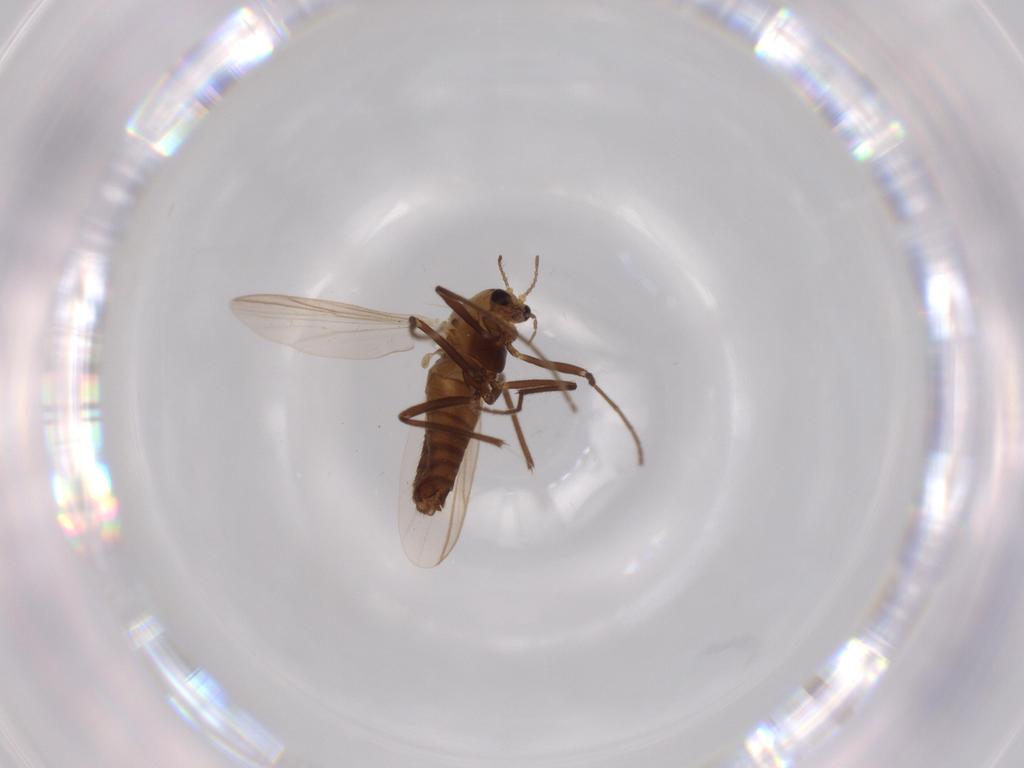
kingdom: Animalia
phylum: Arthropoda
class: Insecta
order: Diptera
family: Chironomidae
